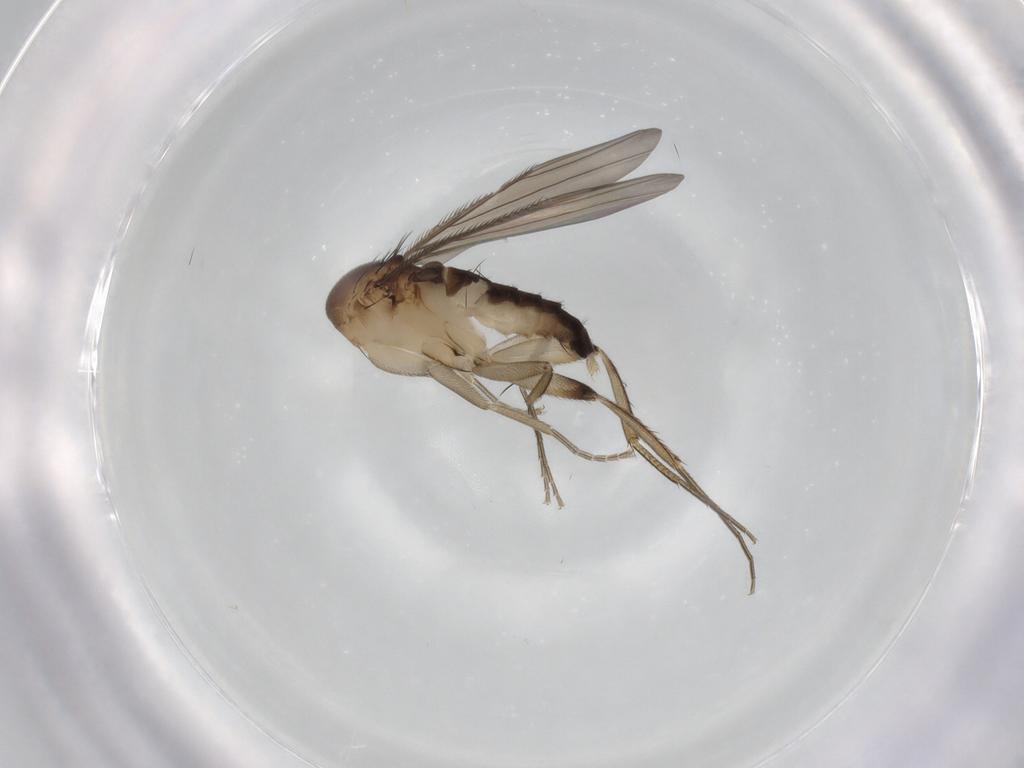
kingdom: Animalia
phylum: Arthropoda
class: Insecta
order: Diptera
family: Phoridae
